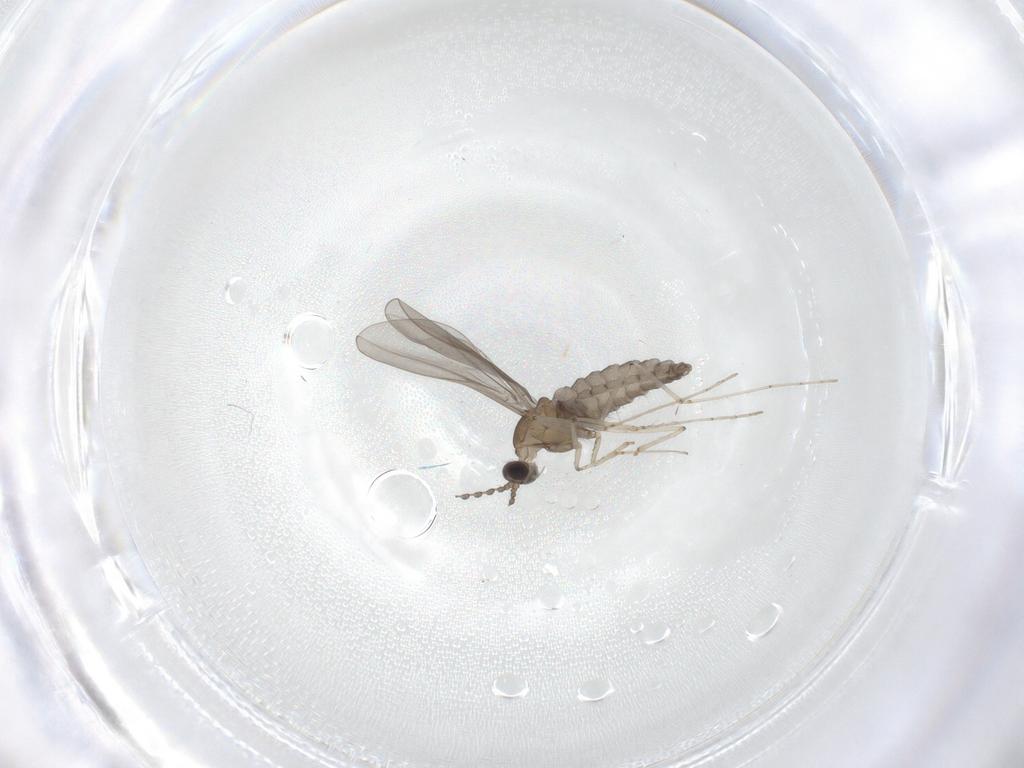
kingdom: Animalia
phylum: Arthropoda
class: Insecta
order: Diptera
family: Cecidomyiidae
